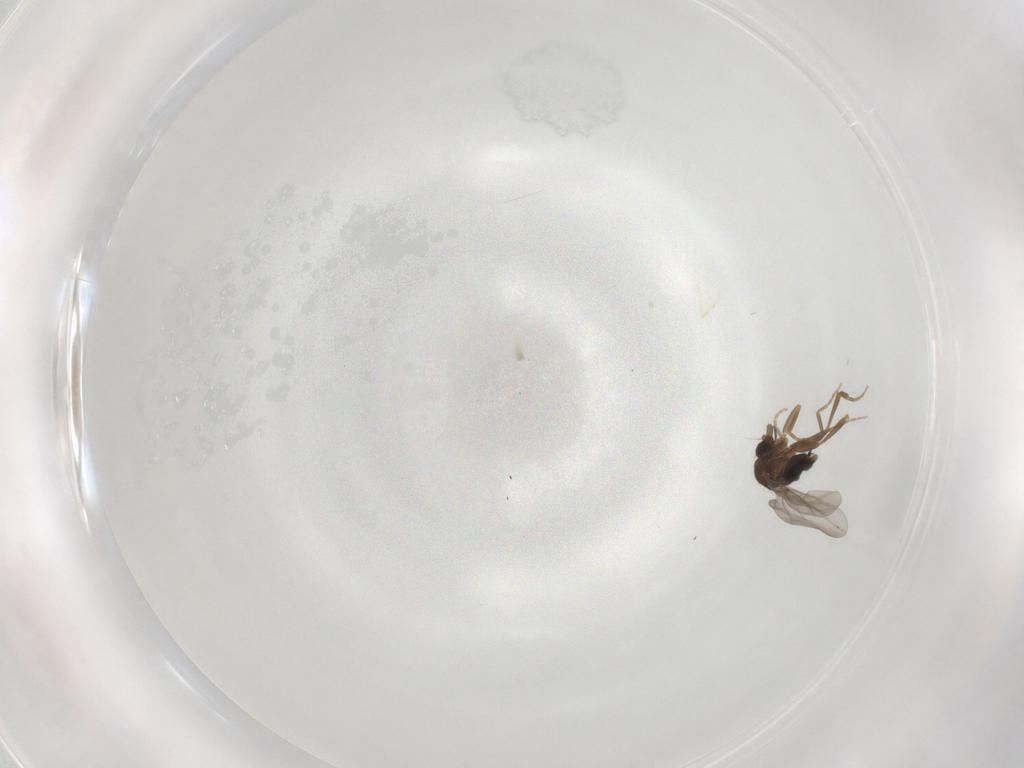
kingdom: Animalia
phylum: Arthropoda
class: Insecta
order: Diptera
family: Phoridae
